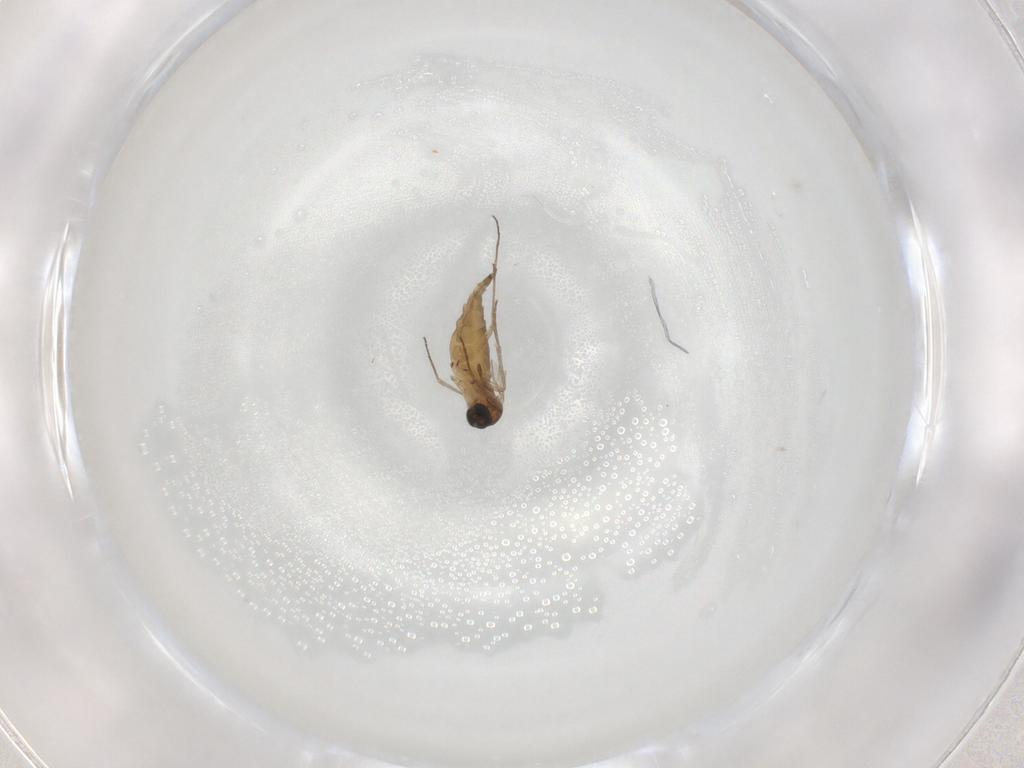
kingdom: Animalia
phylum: Arthropoda
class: Insecta
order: Diptera
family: Sciaridae
